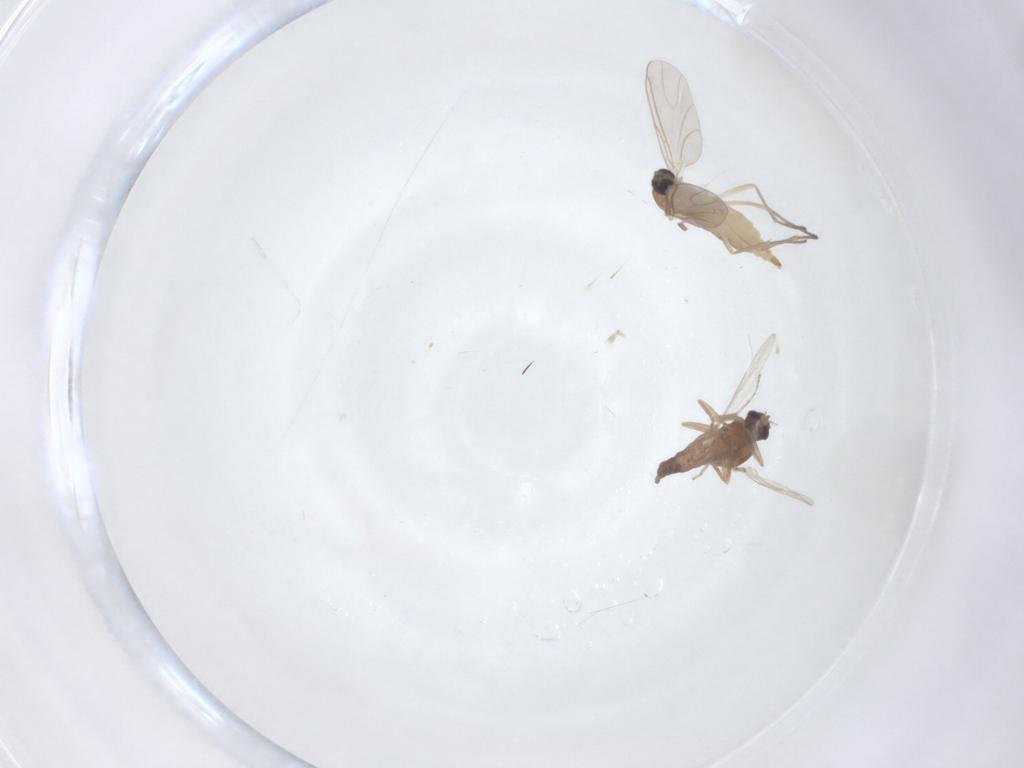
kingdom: Animalia
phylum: Arthropoda
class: Insecta
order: Diptera
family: Sciaridae
